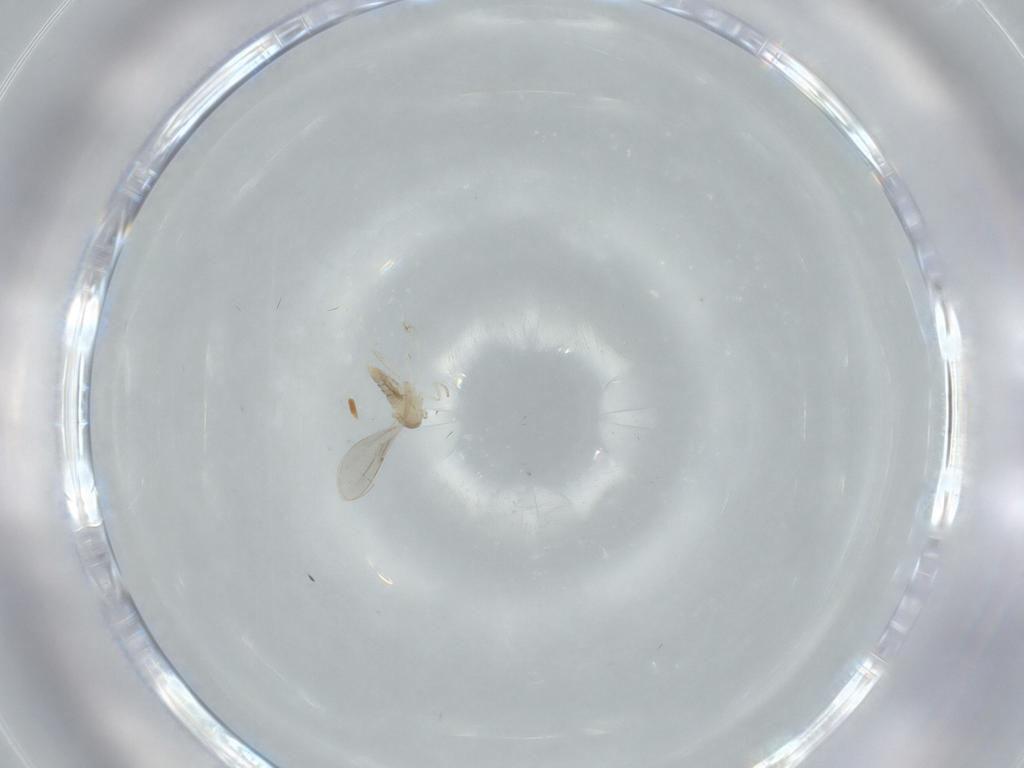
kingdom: Animalia
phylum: Arthropoda
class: Insecta
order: Diptera
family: Cecidomyiidae
